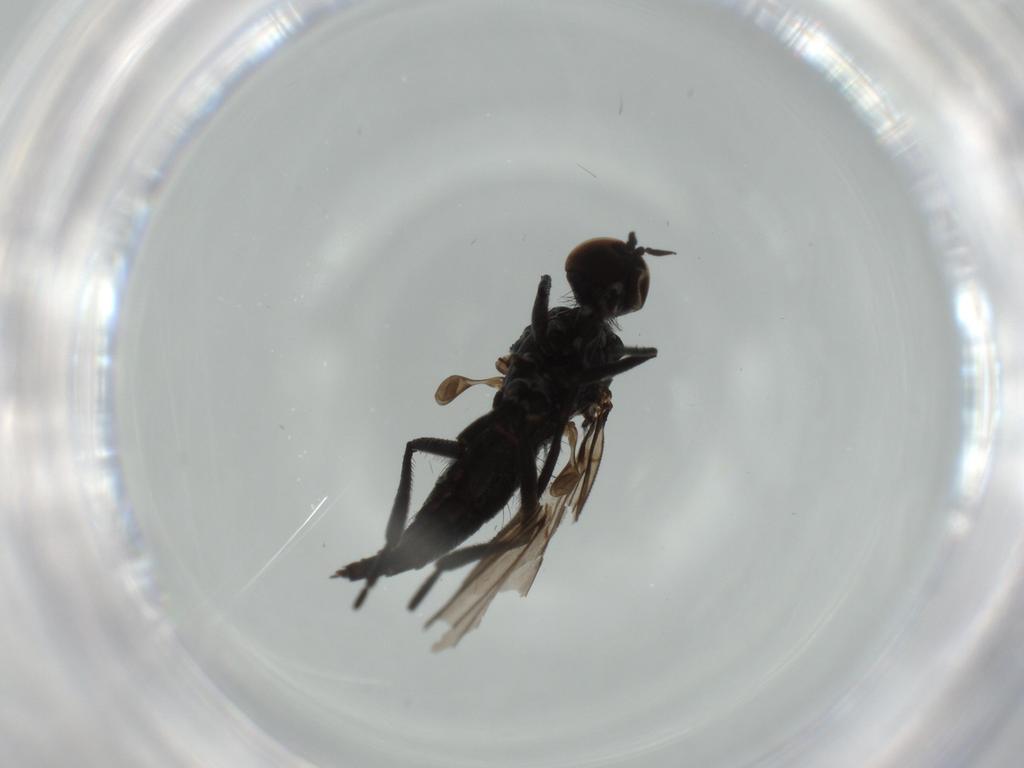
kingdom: Animalia
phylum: Arthropoda
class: Insecta
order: Diptera
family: Hybotidae
